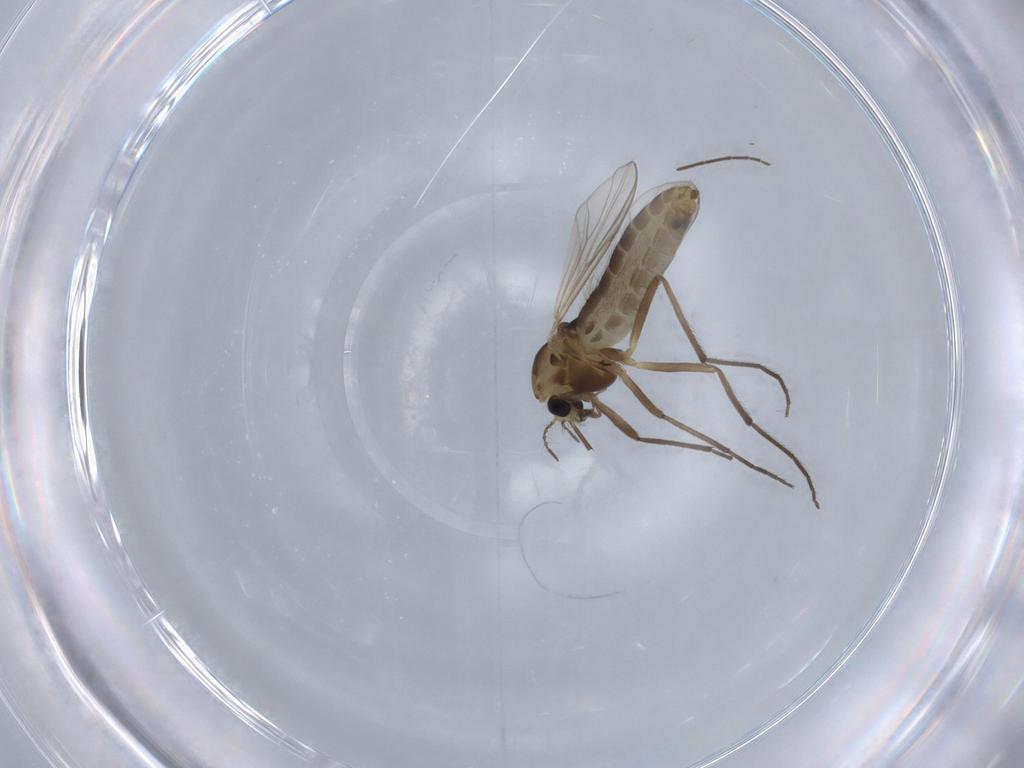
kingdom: Animalia
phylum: Arthropoda
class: Insecta
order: Diptera
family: Chironomidae
